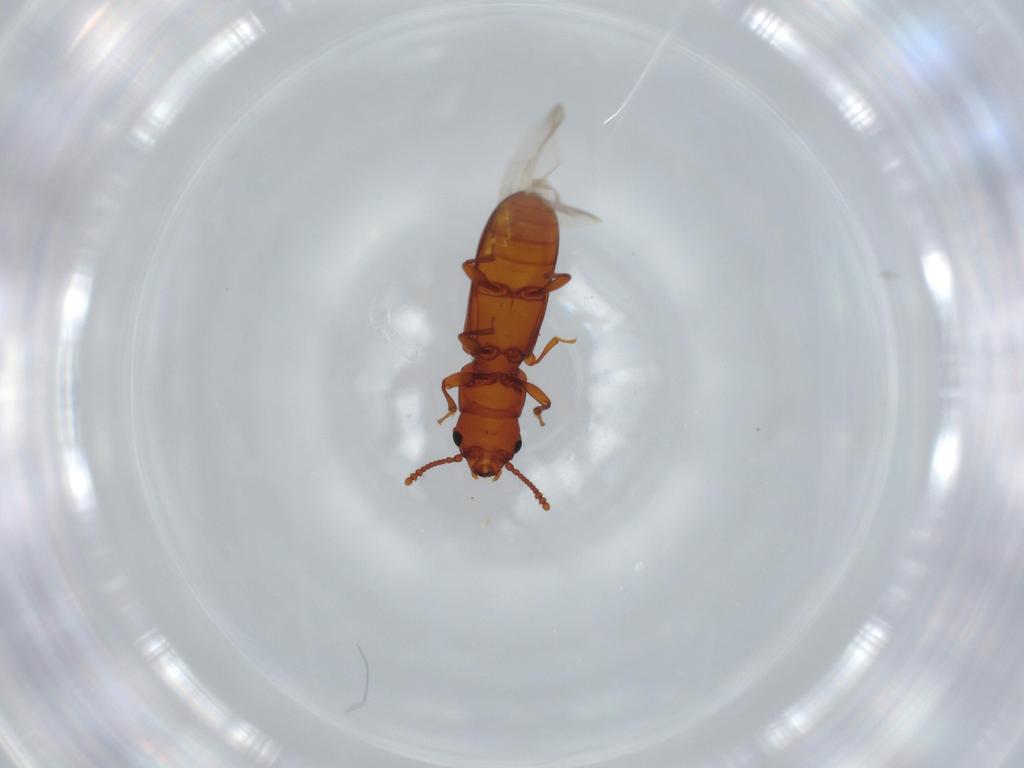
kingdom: Animalia
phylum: Arthropoda
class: Insecta
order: Coleoptera
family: Salpingidae
